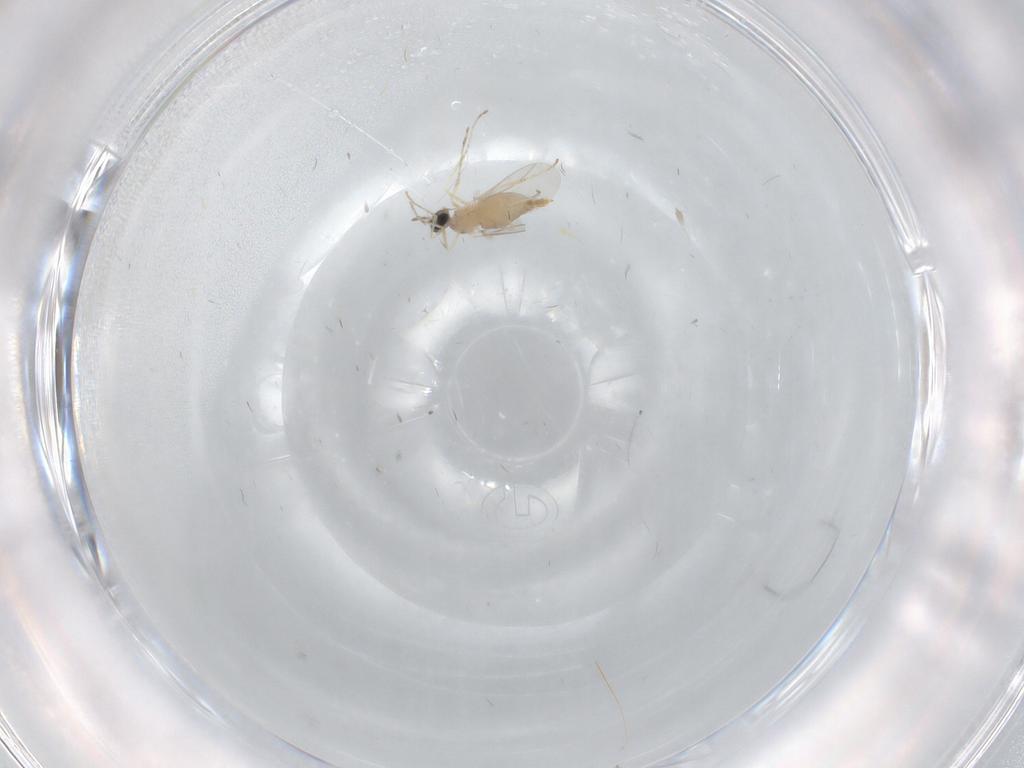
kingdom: Animalia
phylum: Arthropoda
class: Insecta
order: Diptera
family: Cecidomyiidae
